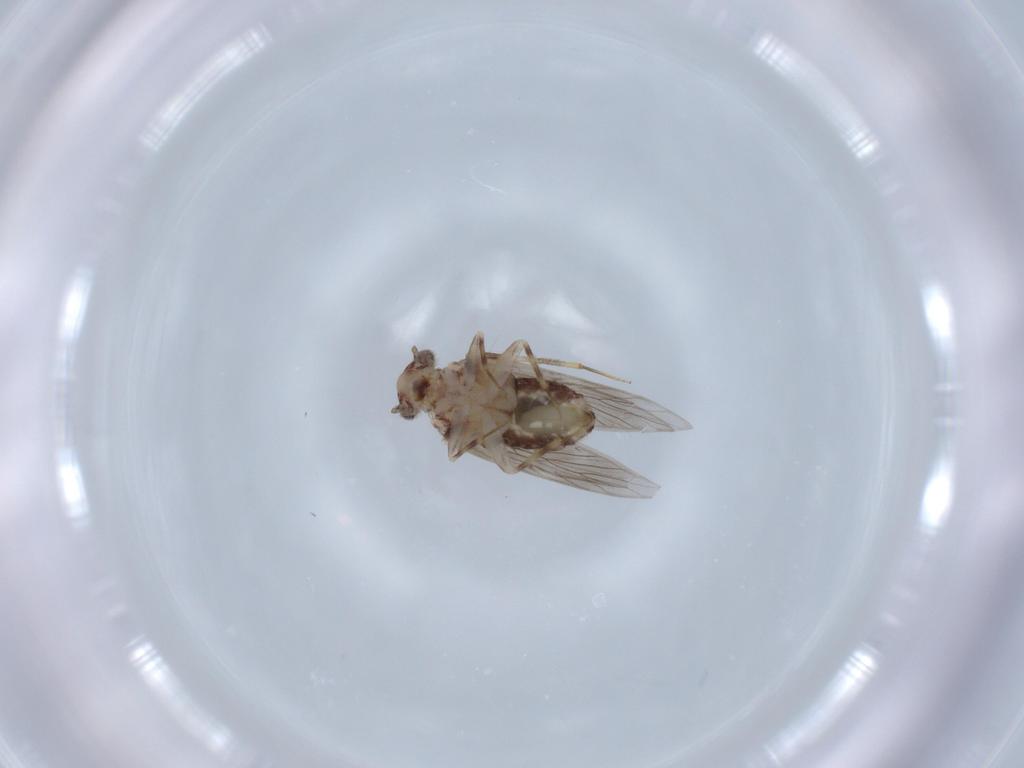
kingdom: Animalia
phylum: Arthropoda
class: Insecta
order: Psocodea
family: Lepidopsocidae
